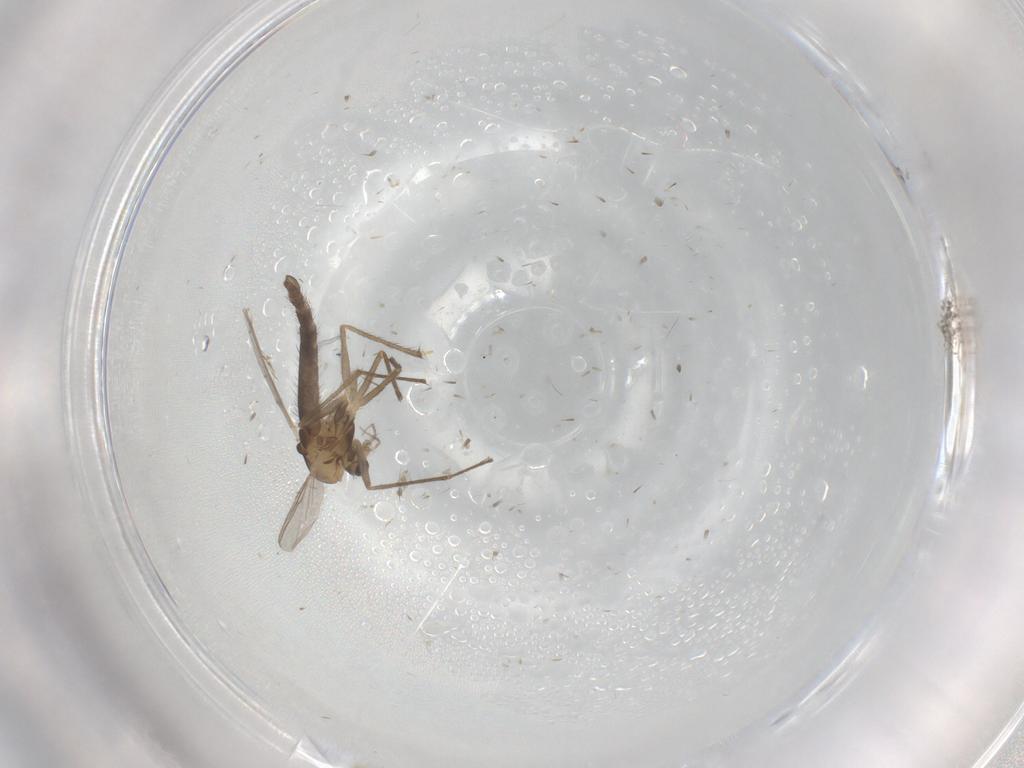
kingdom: Animalia
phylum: Arthropoda
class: Insecta
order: Diptera
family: Chironomidae
